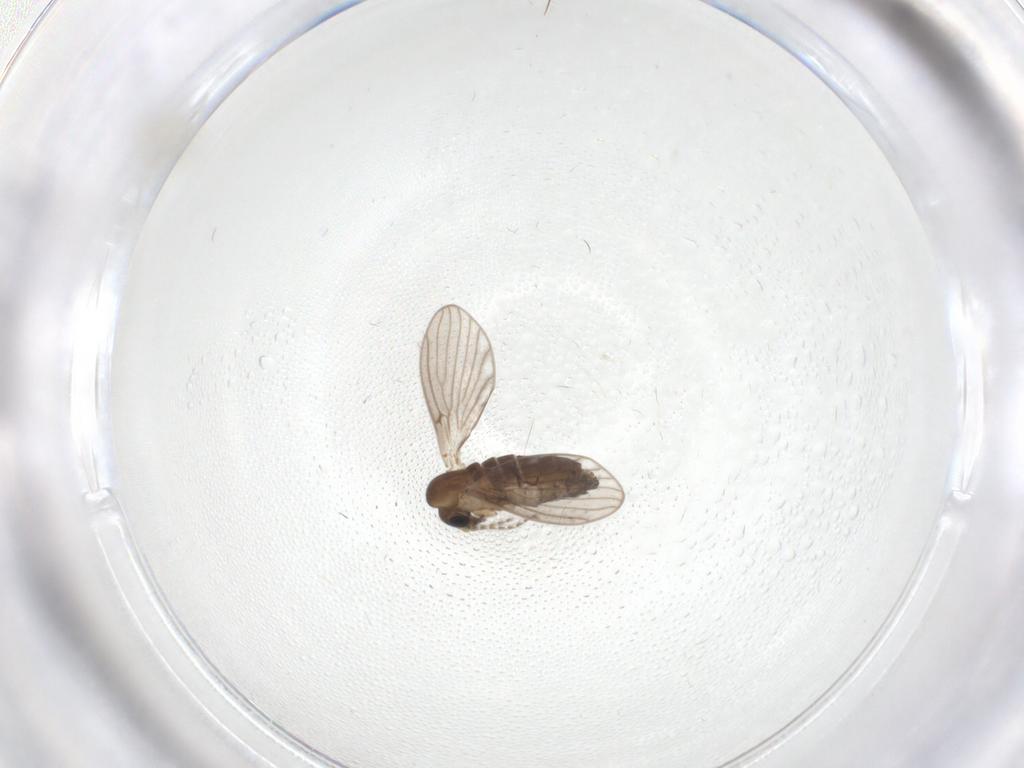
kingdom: Animalia
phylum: Arthropoda
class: Insecta
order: Diptera
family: Psychodidae
